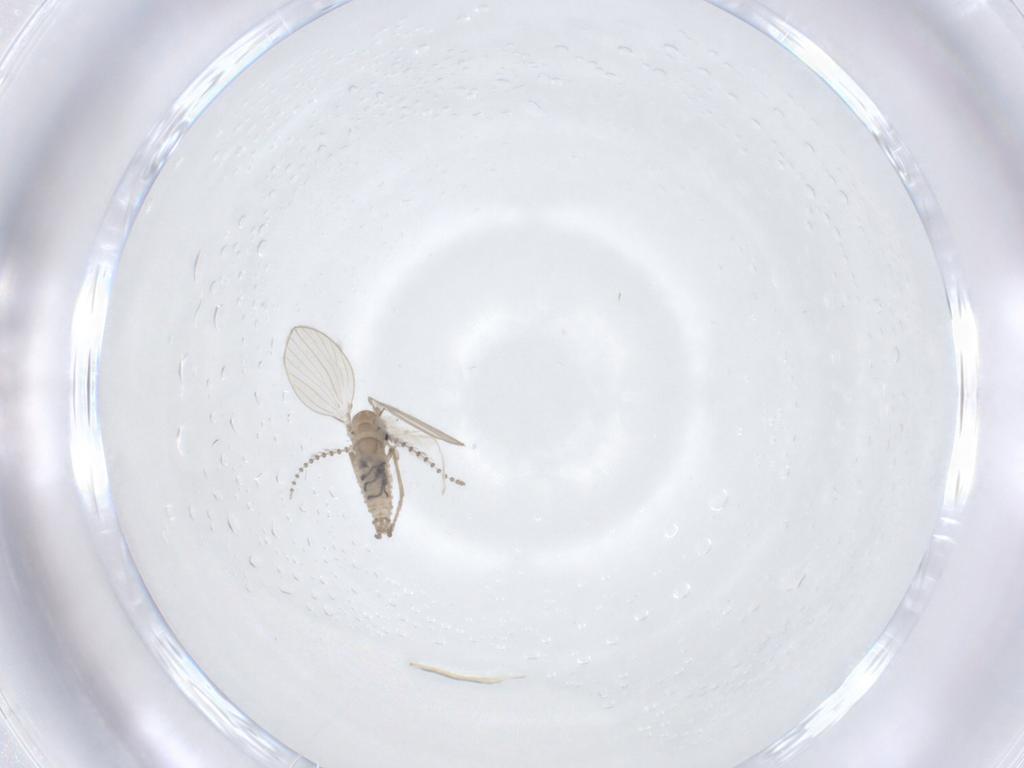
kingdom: Animalia
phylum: Arthropoda
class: Insecta
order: Diptera
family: Psychodidae
